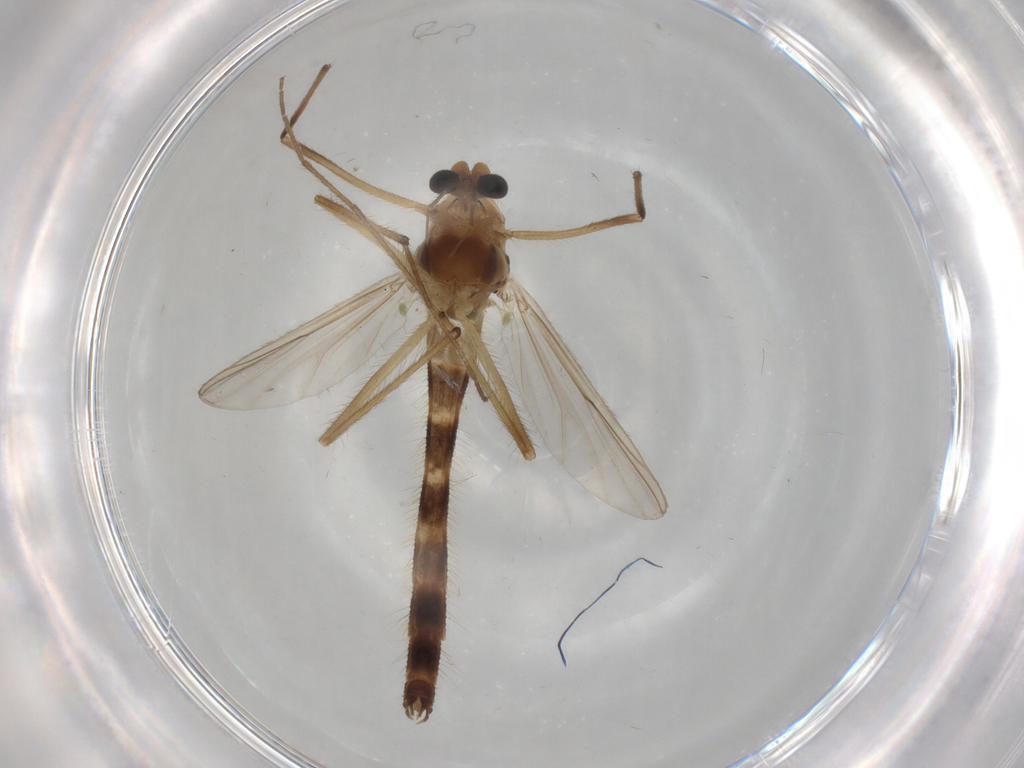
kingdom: Animalia
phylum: Arthropoda
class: Insecta
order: Diptera
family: Chironomidae
